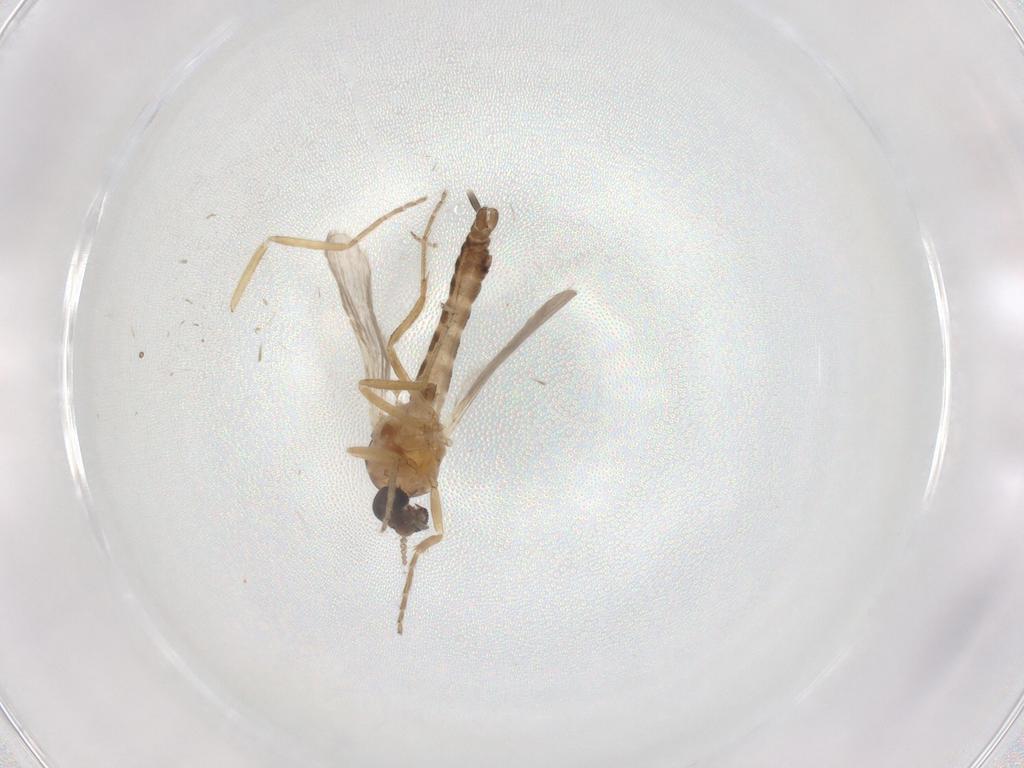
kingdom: Animalia
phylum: Arthropoda
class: Insecta
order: Diptera
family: Ceratopogonidae
